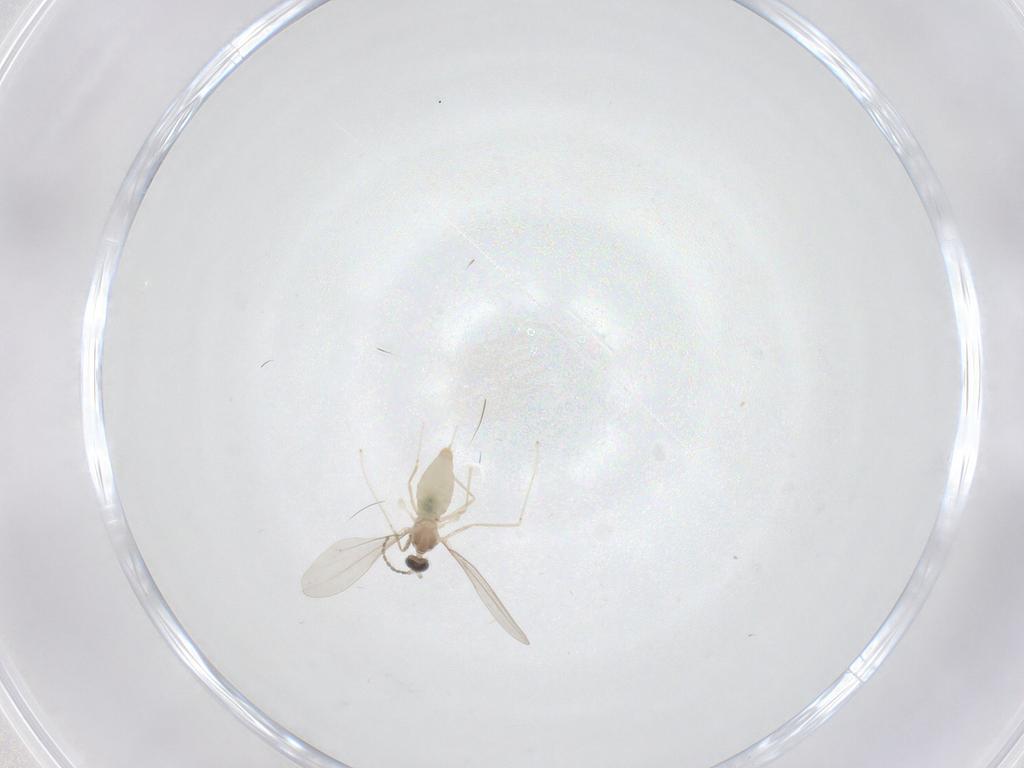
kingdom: Animalia
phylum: Arthropoda
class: Insecta
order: Diptera
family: Cecidomyiidae
